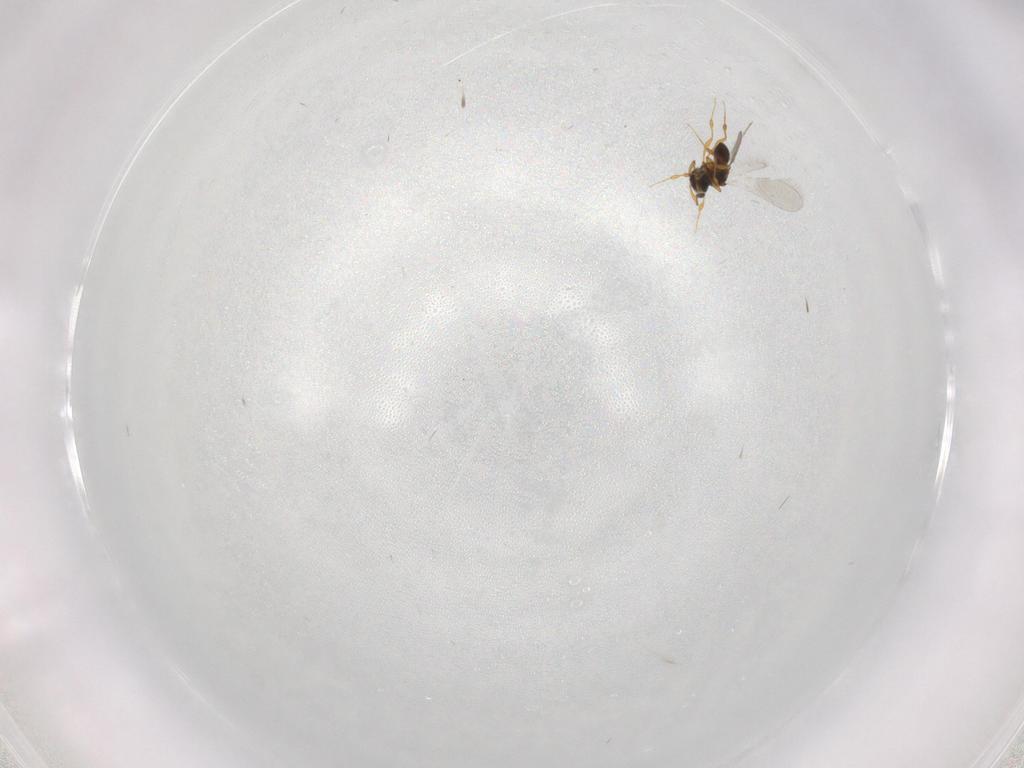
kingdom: Animalia
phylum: Arthropoda
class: Insecta
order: Hymenoptera
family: Platygastridae
